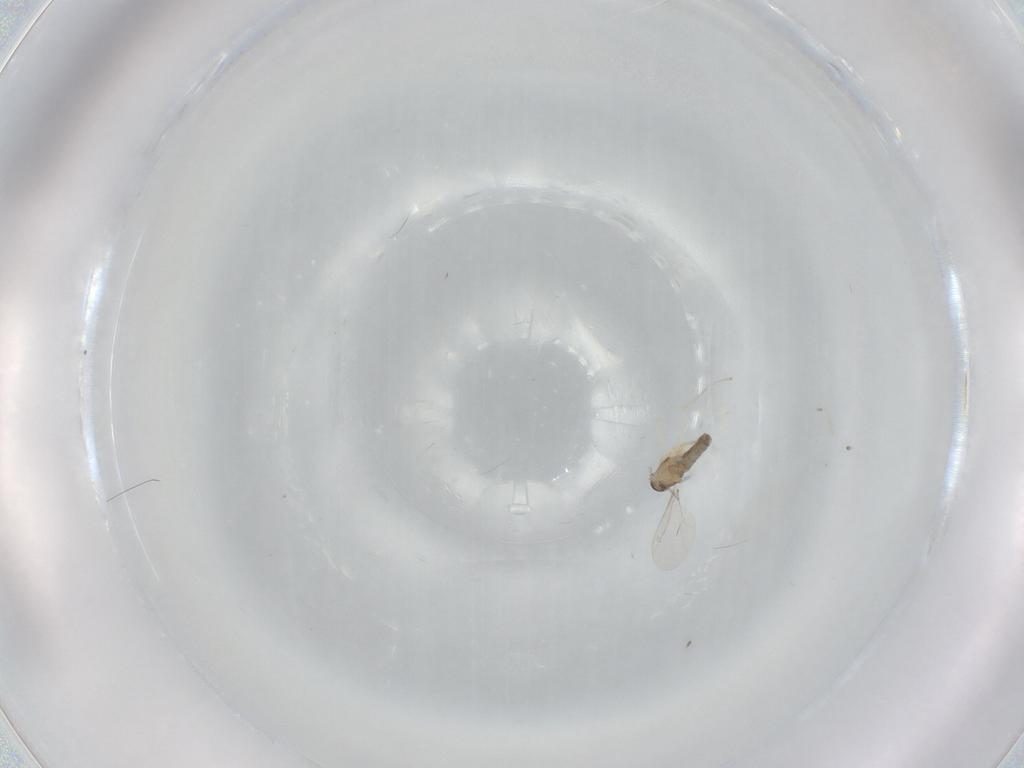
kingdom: Animalia
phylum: Arthropoda
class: Insecta
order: Diptera
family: Cecidomyiidae
